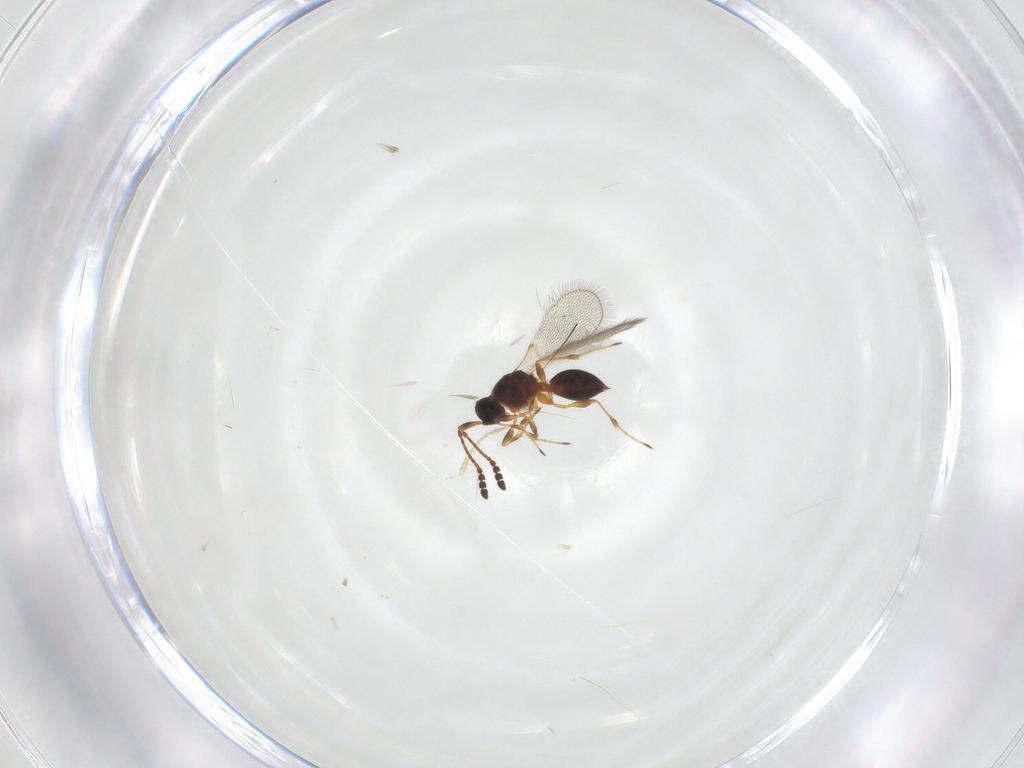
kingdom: Animalia
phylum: Arthropoda
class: Insecta
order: Hymenoptera
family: Diapriidae
